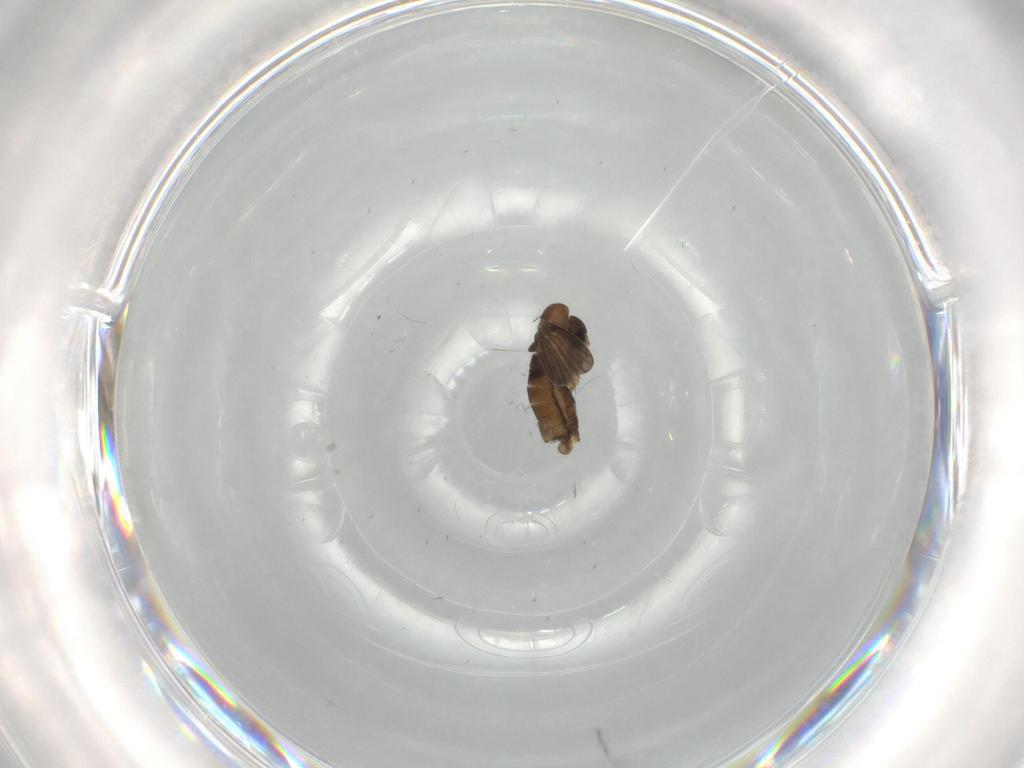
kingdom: Animalia
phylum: Arthropoda
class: Insecta
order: Diptera
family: Tabanidae
